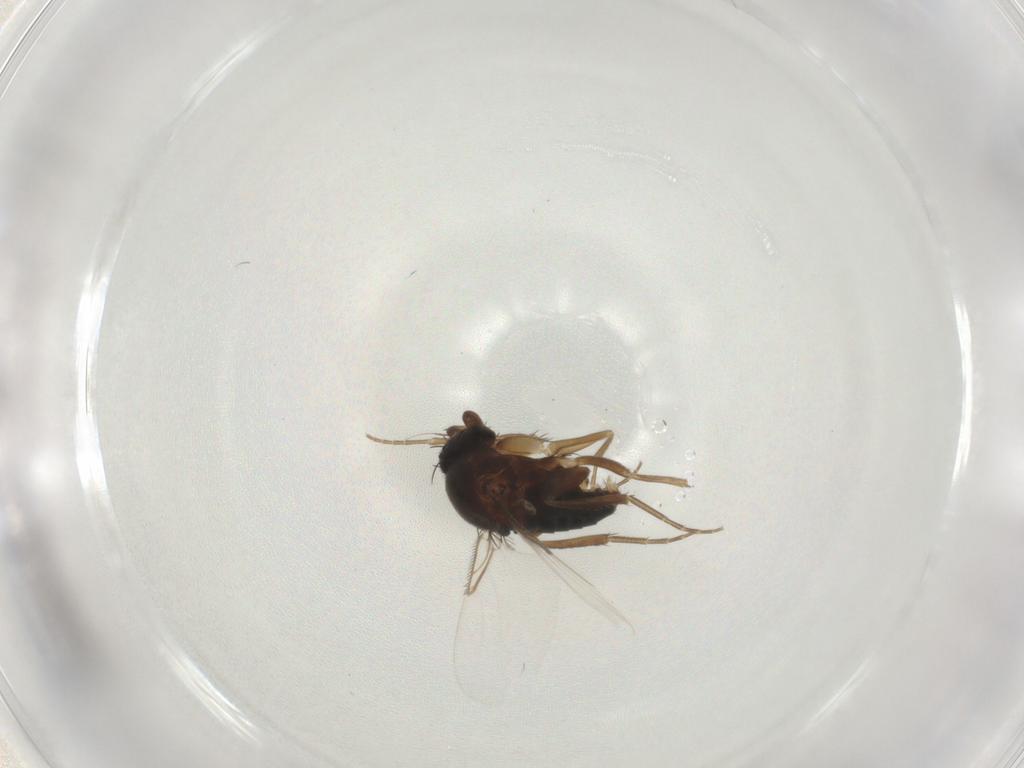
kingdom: Animalia
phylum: Arthropoda
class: Insecta
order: Diptera
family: Phoridae
